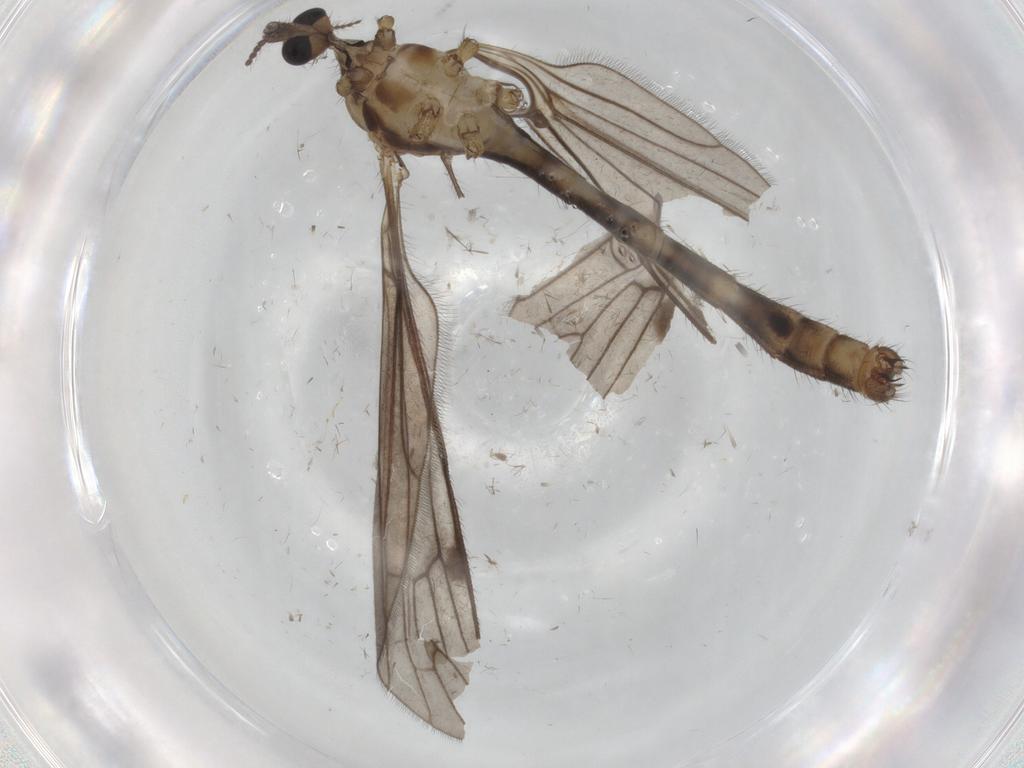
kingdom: Animalia
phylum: Arthropoda
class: Insecta
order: Diptera
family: Limoniidae
